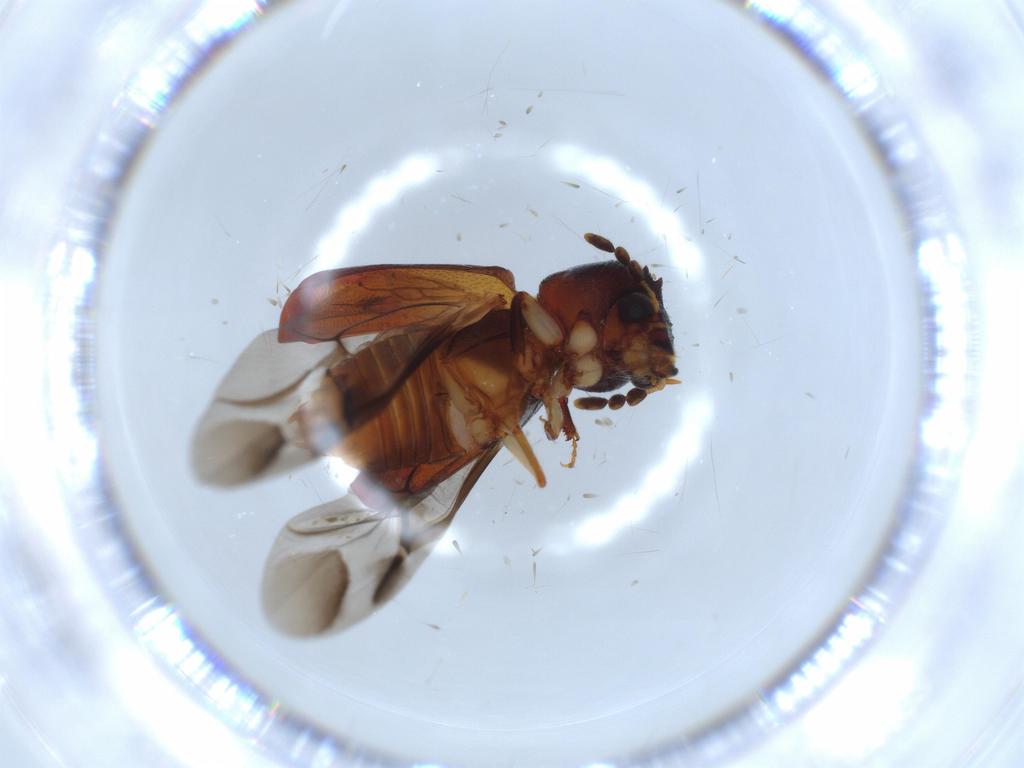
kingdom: Animalia
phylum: Arthropoda
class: Insecta
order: Coleoptera
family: Bostrichidae
